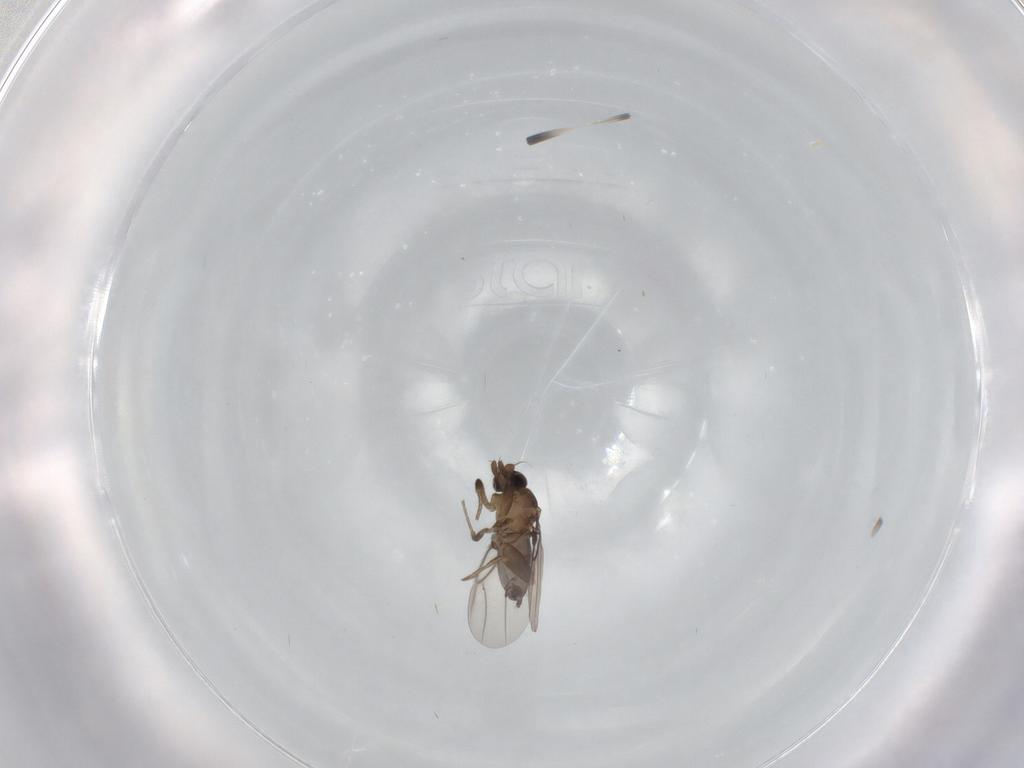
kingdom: Animalia
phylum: Arthropoda
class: Insecta
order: Diptera
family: Phoridae
